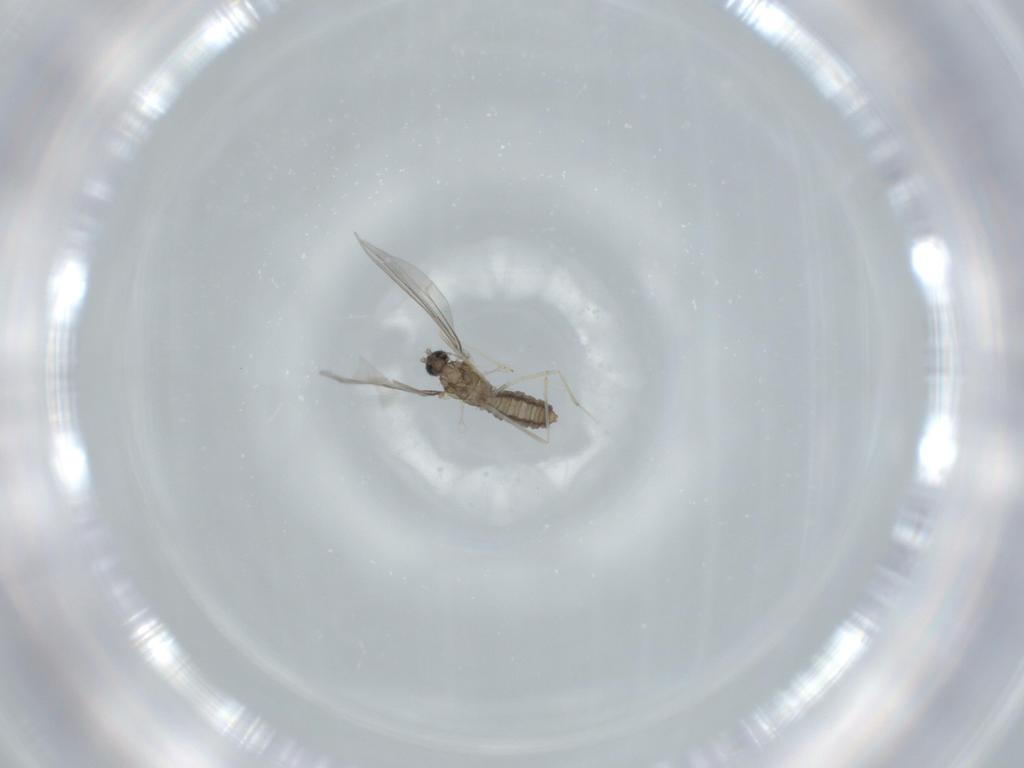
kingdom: Animalia
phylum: Arthropoda
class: Insecta
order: Diptera
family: Cecidomyiidae
